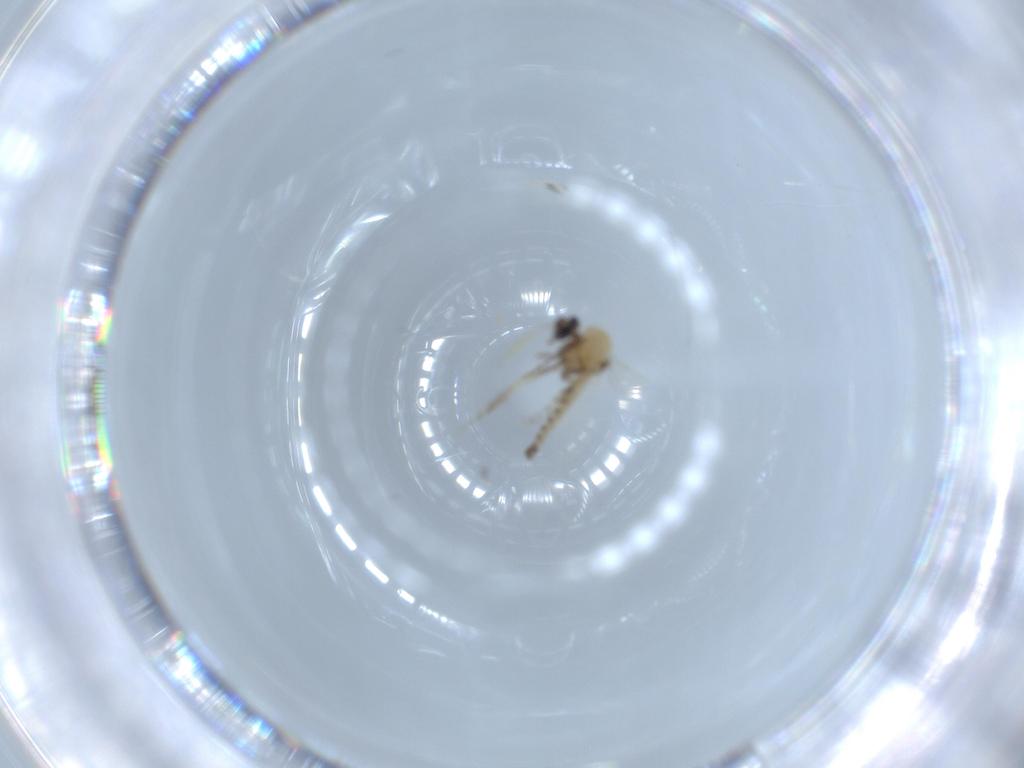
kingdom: Animalia
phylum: Arthropoda
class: Insecta
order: Diptera
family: Ceratopogonidae
